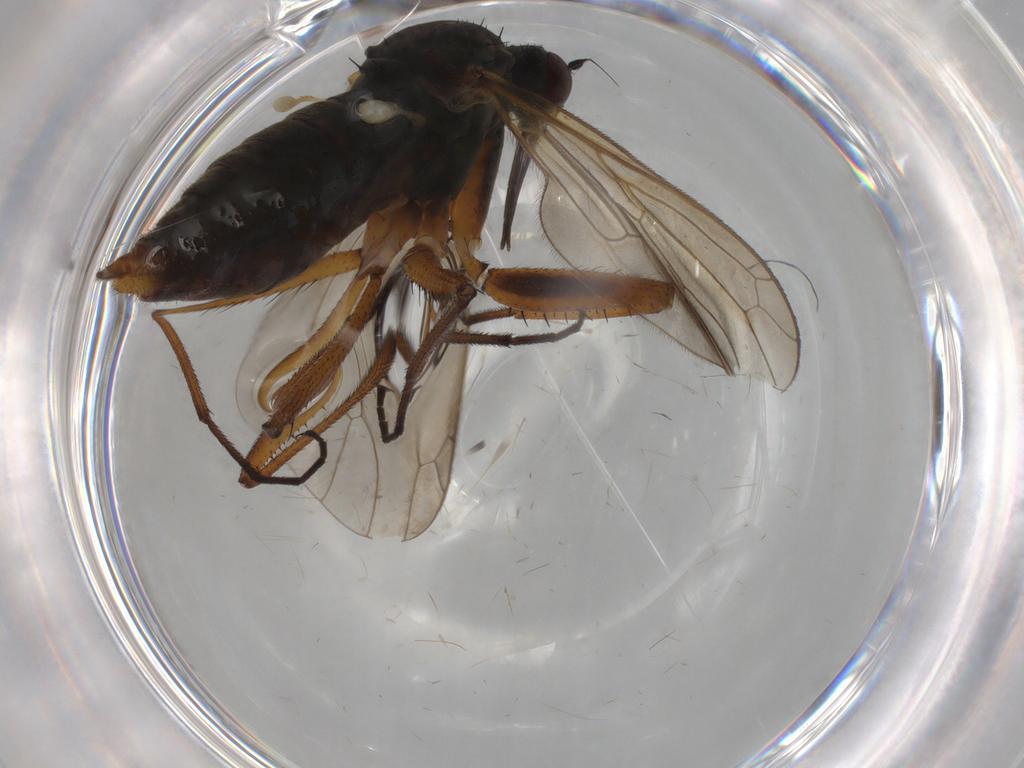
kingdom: Animalia
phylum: Arthropoda
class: Insecta
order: Diptera
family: Empididae
